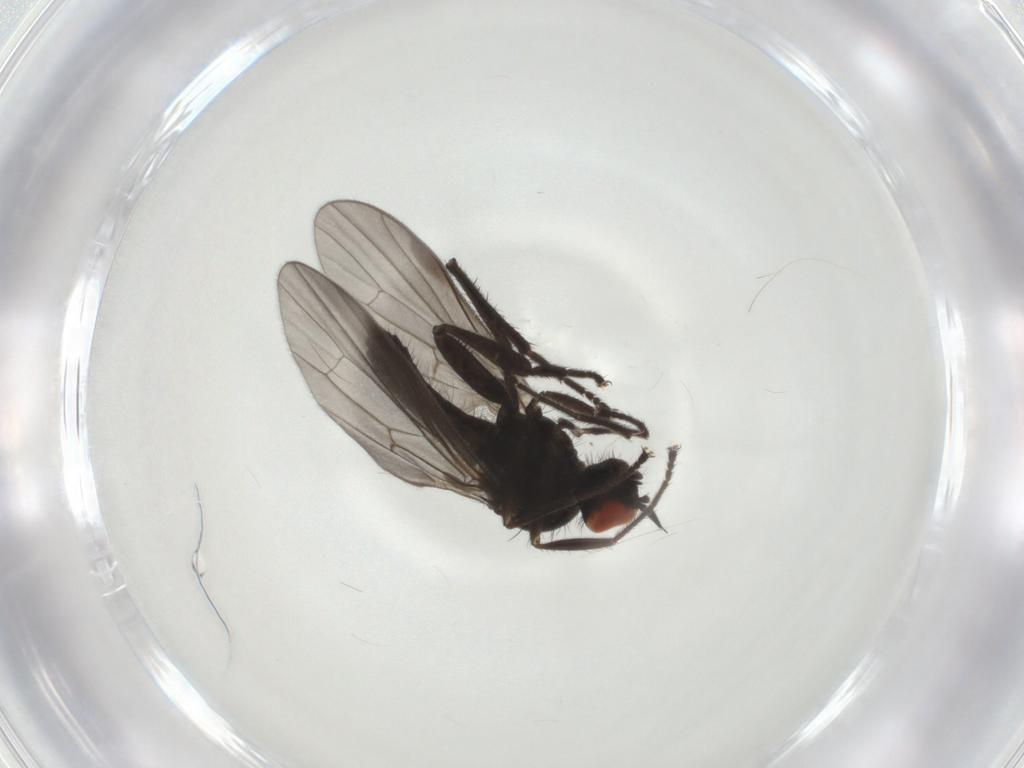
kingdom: Animalia
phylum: Arthropoda
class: Insecta
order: Diptera
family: Hybotidae
